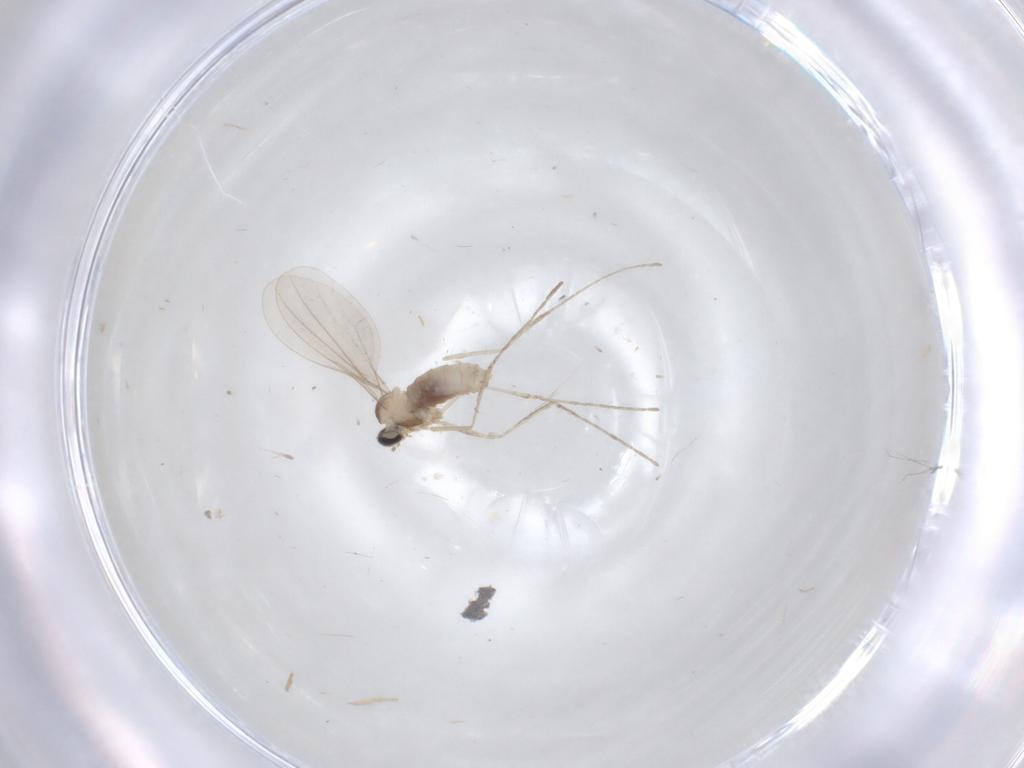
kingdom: Animalia
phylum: Arthropoda
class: Insecta
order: Diptera
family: Cecidomyiidae
